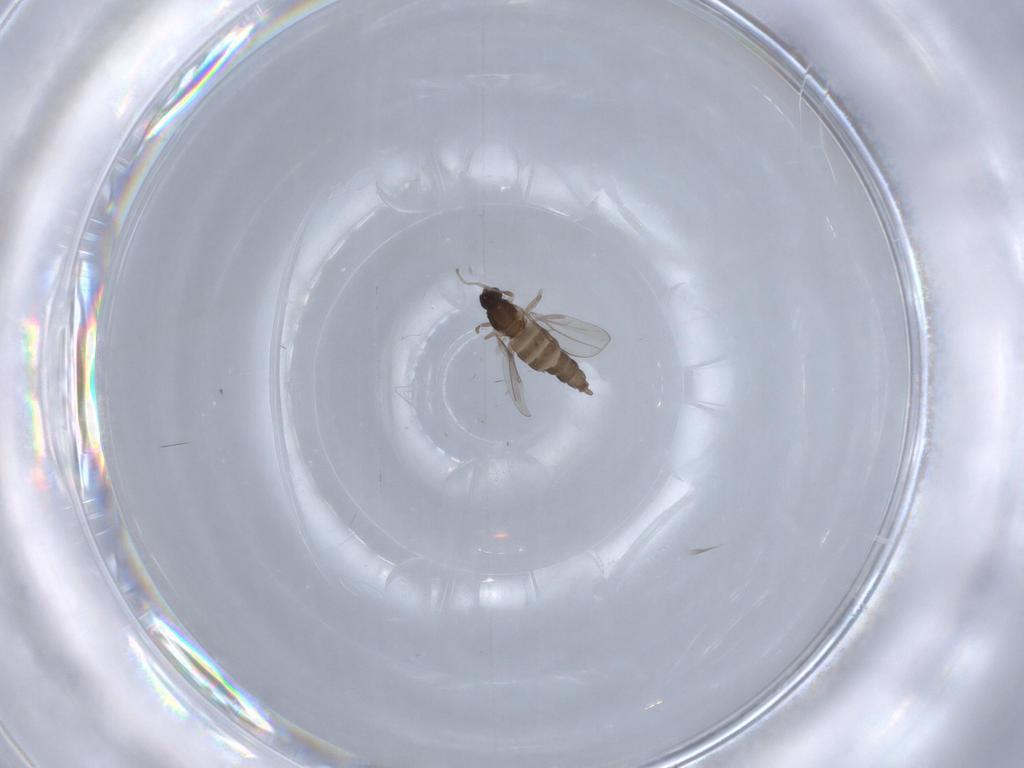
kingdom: Animalia
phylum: Arthropoda
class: Insecta
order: Diptera
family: Cecidomyiidae
